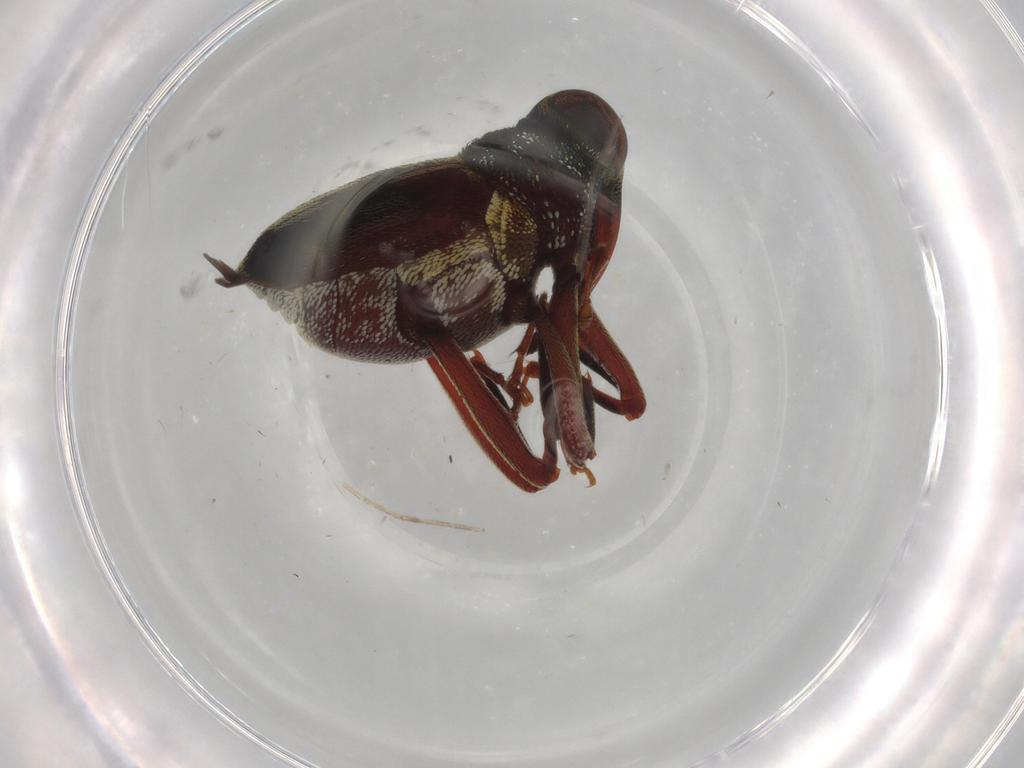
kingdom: Animalia
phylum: Arthropoda
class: Insecta
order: Coleoptera
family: Curculionidae
